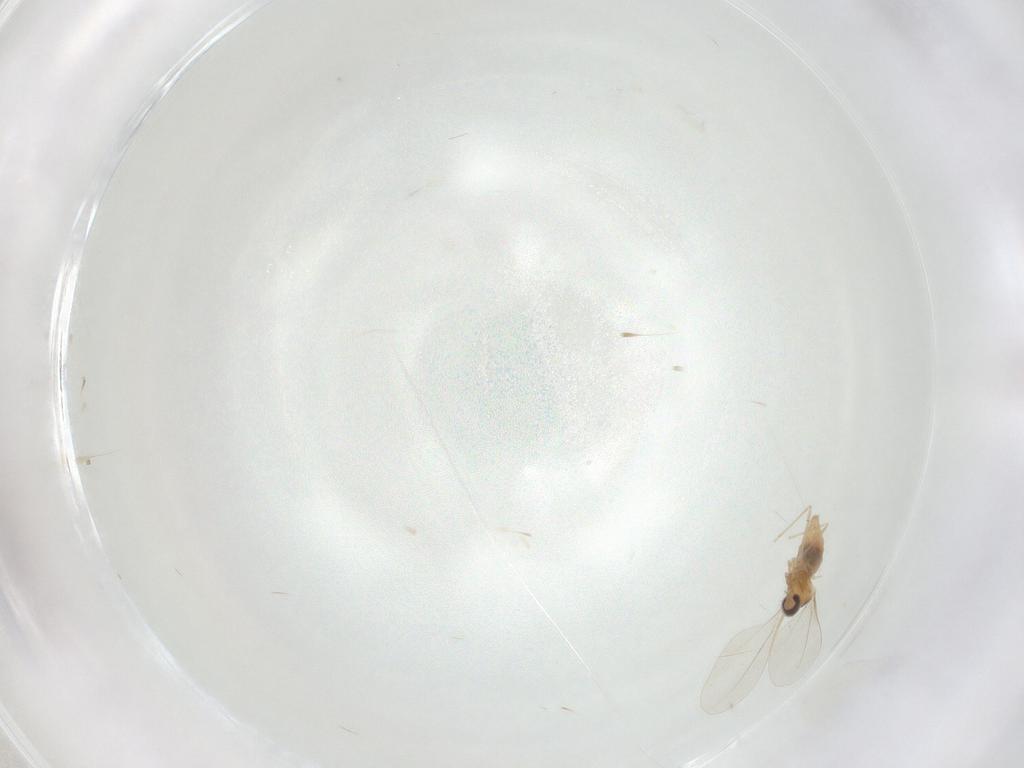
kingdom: Animalia
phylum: Arthropoda
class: Insecta
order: Diptera
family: Cecidomyiidae
